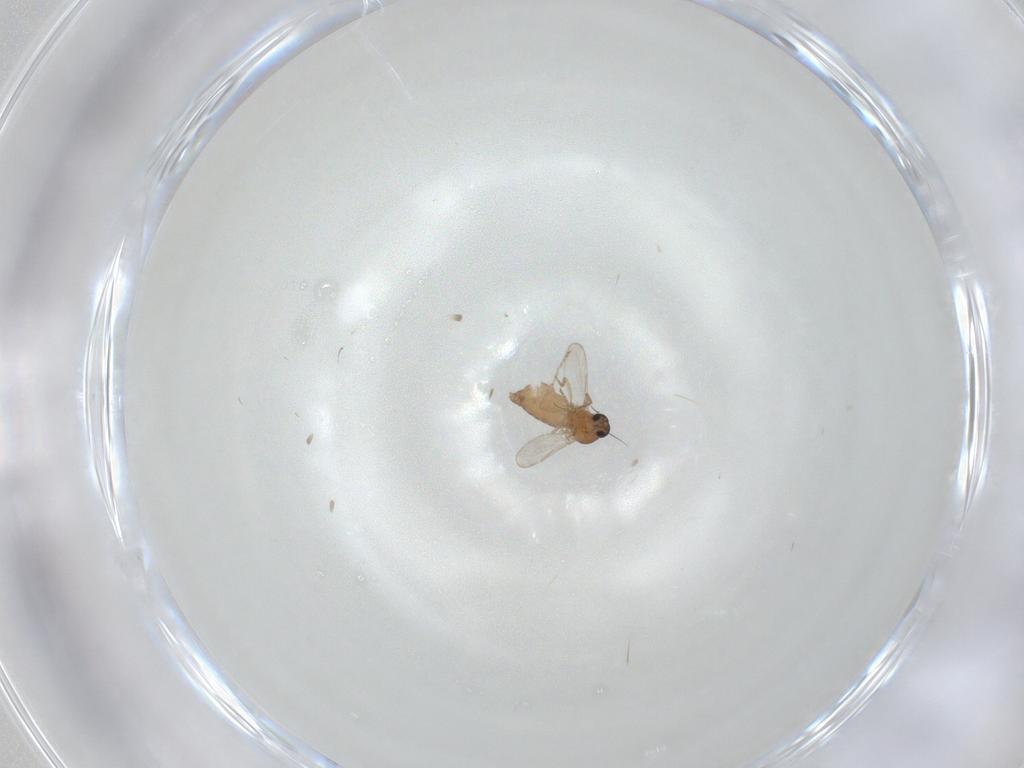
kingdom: Animalia
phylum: Arthropoda
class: Insecta
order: Diptera
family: Ceratopogonidae
